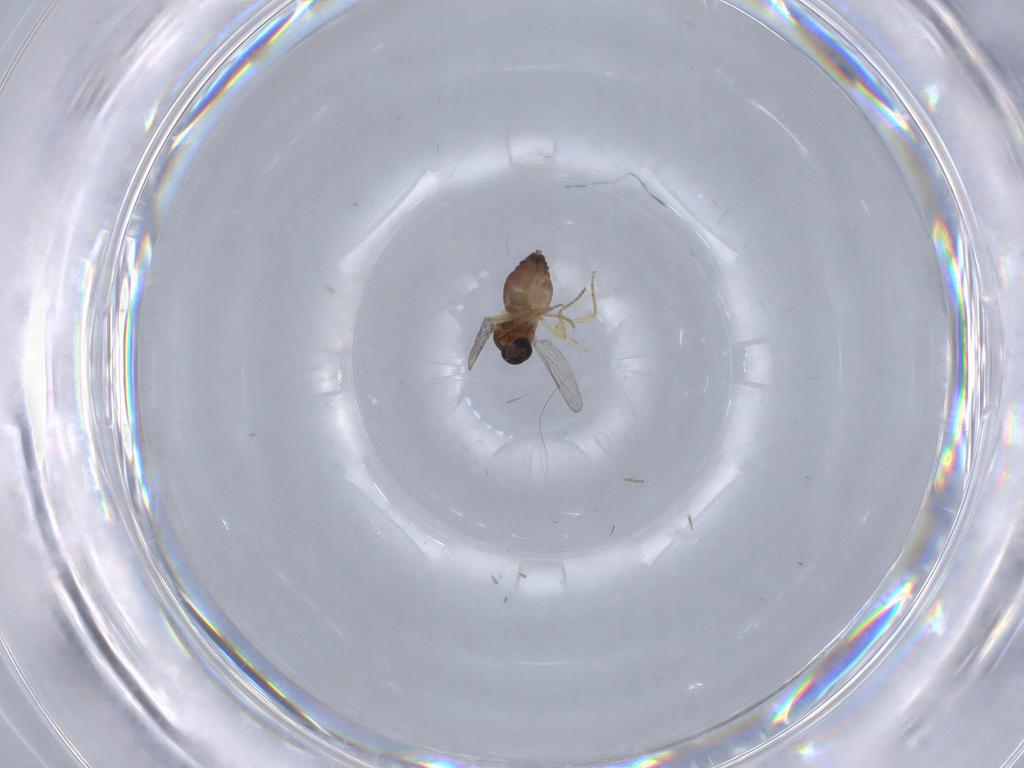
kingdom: Animalia
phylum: Arthropoda
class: Insecta
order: Diptera
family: Ceratopogonidae
